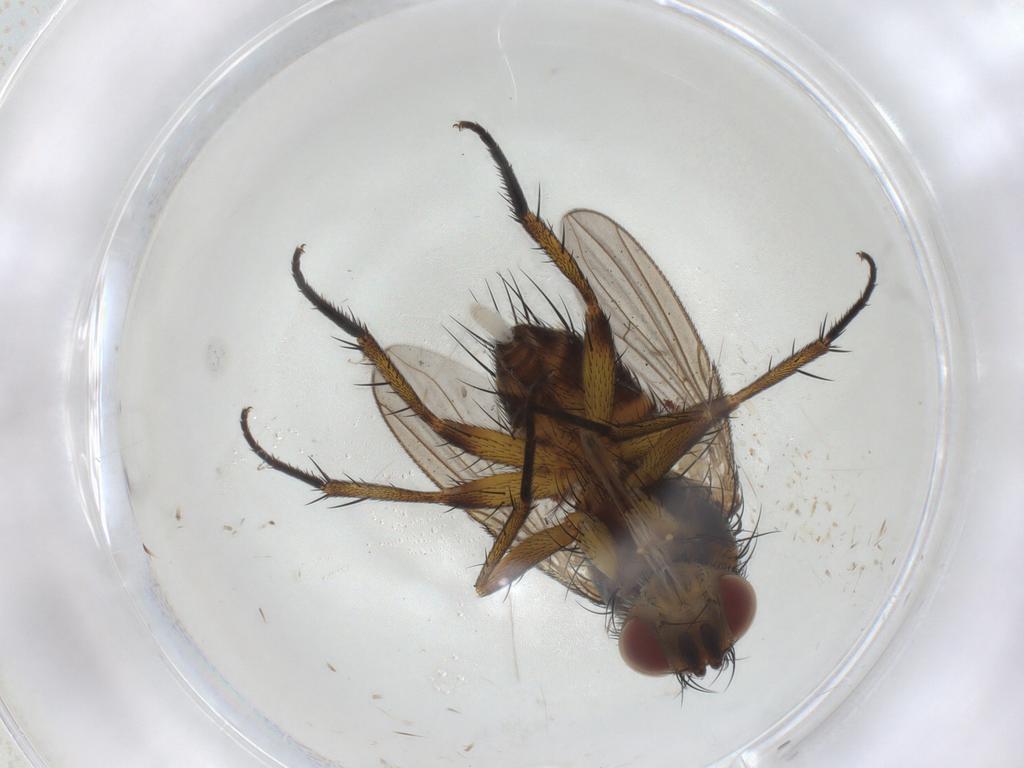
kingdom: Animalia
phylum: Arthropoda
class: Insecta
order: Diptera
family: Tachinidae
